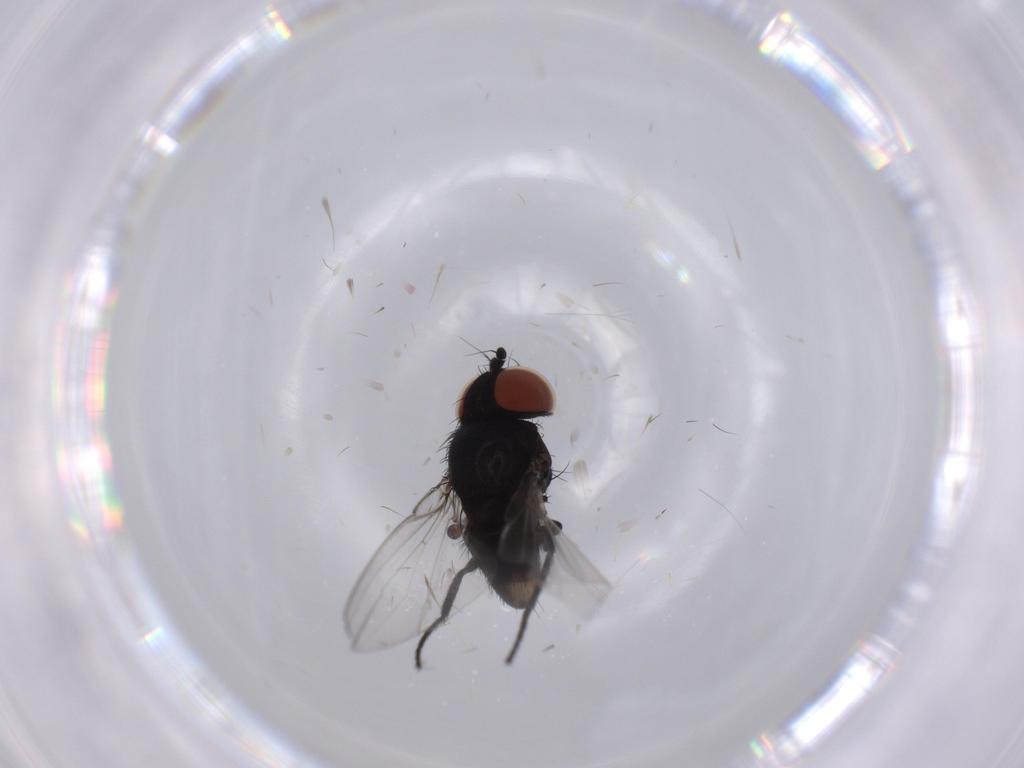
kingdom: Animalia
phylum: Arthropoda
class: Insecta
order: Diptera
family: Milichiidae
